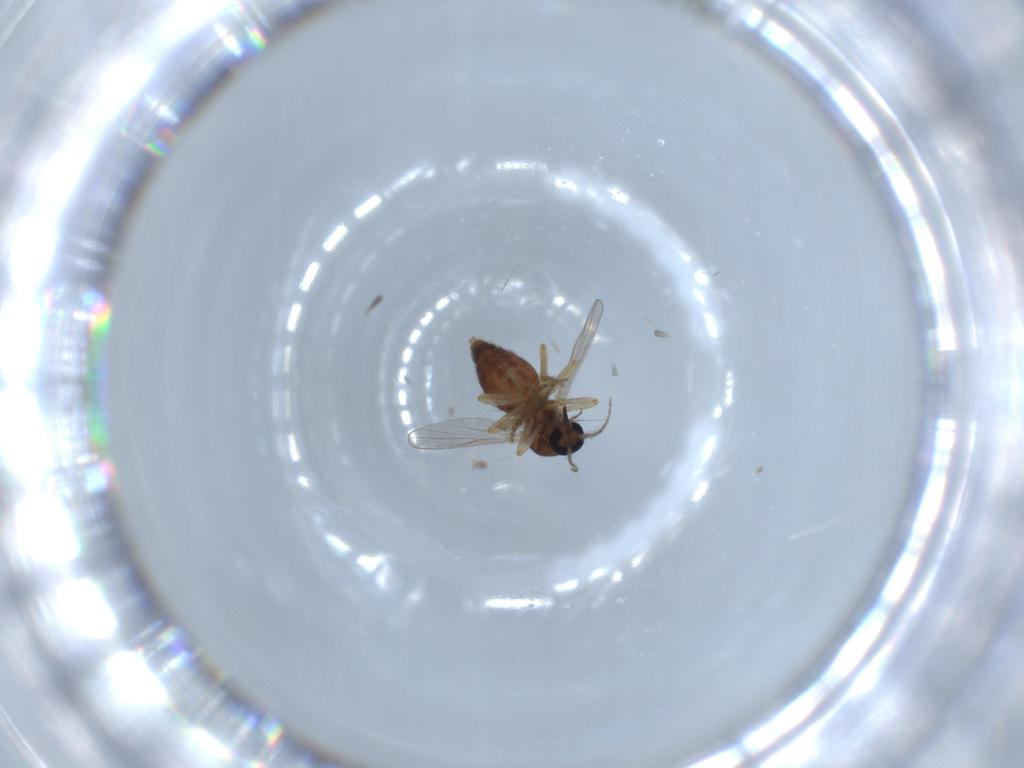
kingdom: Animalia
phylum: Arthropoda
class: Insecta
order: Diptera
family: Ceratopogonidae
